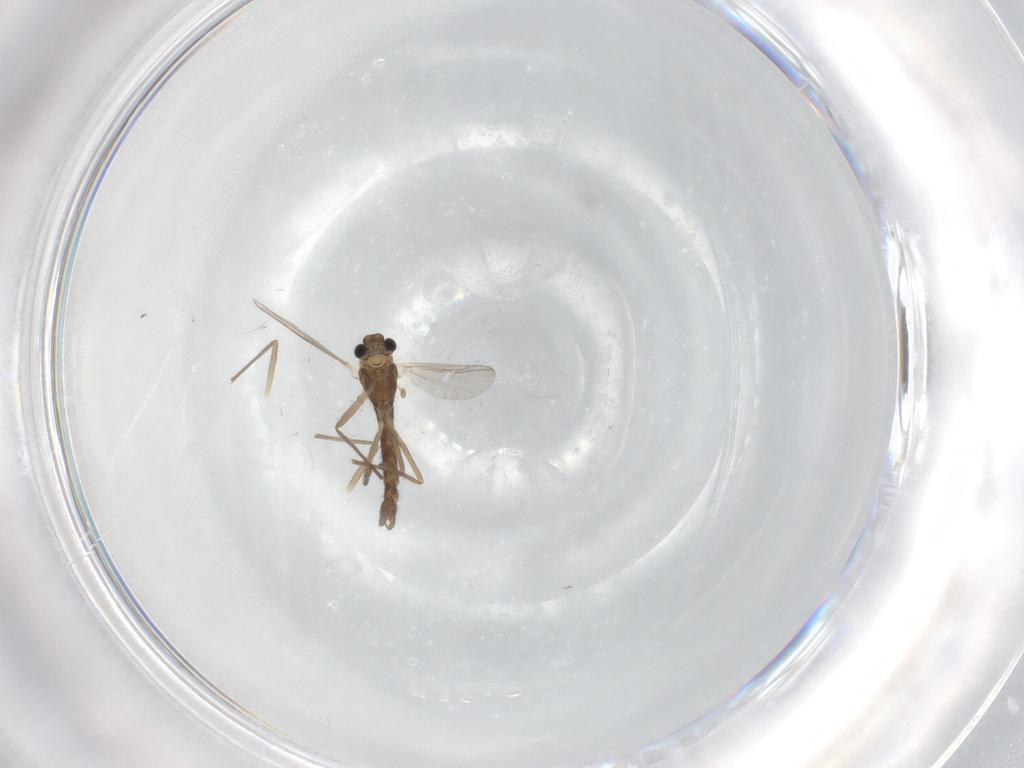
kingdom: Animalia
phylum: Arthropoda
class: Insecta
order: Diptera
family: Chironomidae
